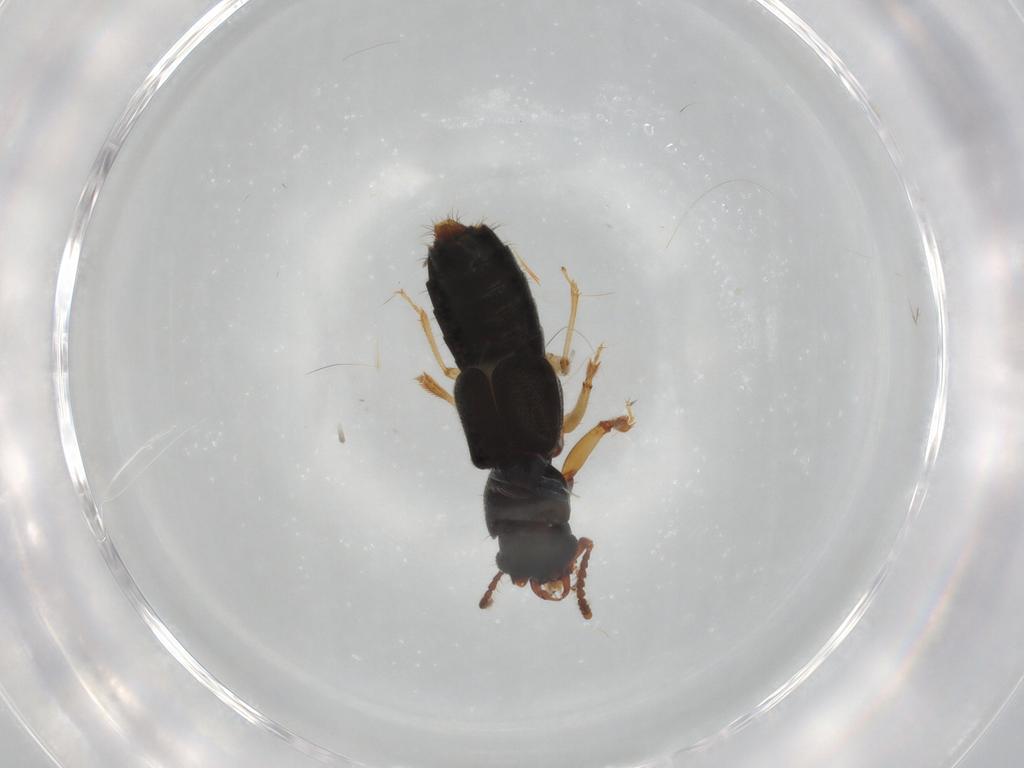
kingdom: Animalia
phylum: Arthropoda
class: Insecta
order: Coleoptera
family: Staphylinidae
